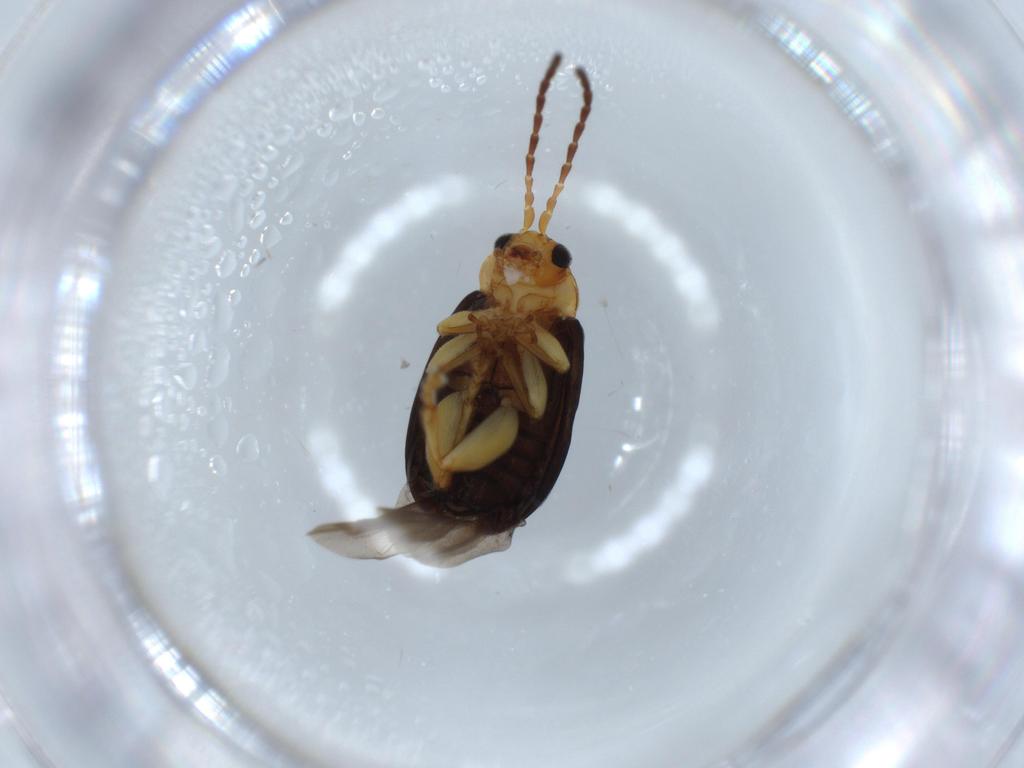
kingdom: Animalia
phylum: Arthropoda
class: Insecta
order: Coleoptera
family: Chrysomelidae
